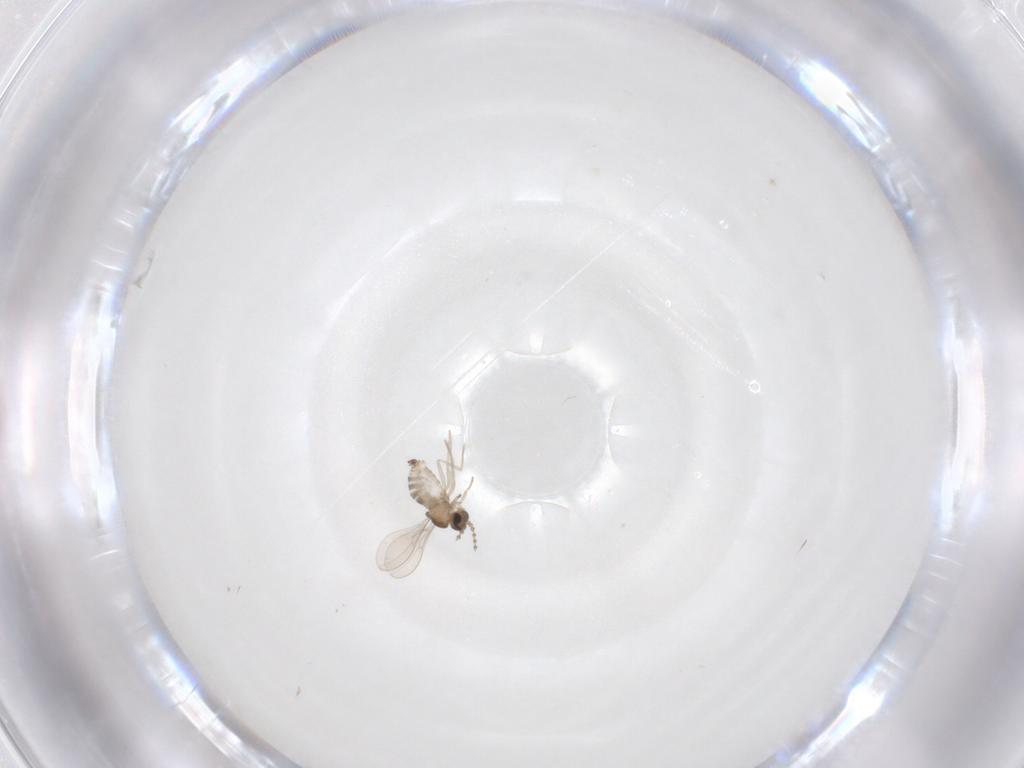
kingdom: Animalia
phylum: Arthropoda
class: Insecta
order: Diptera
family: Cecidomyiidae
